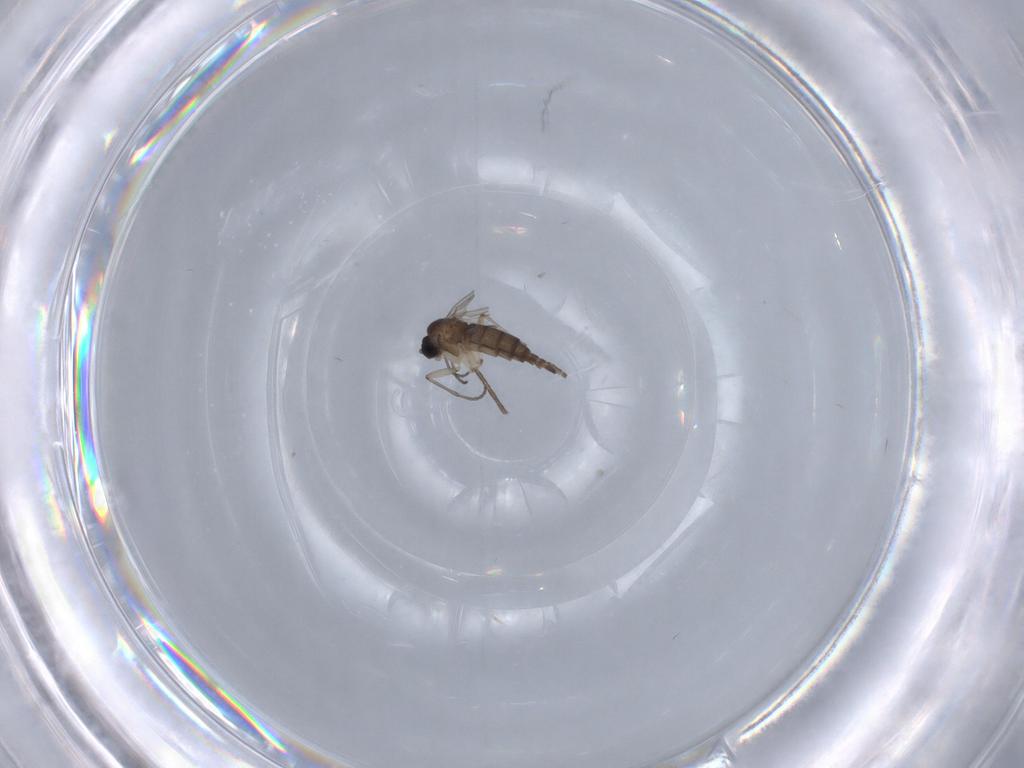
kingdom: Animalia
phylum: Arthropoda
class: Insecta
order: Diptera
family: Mycetophilidae
